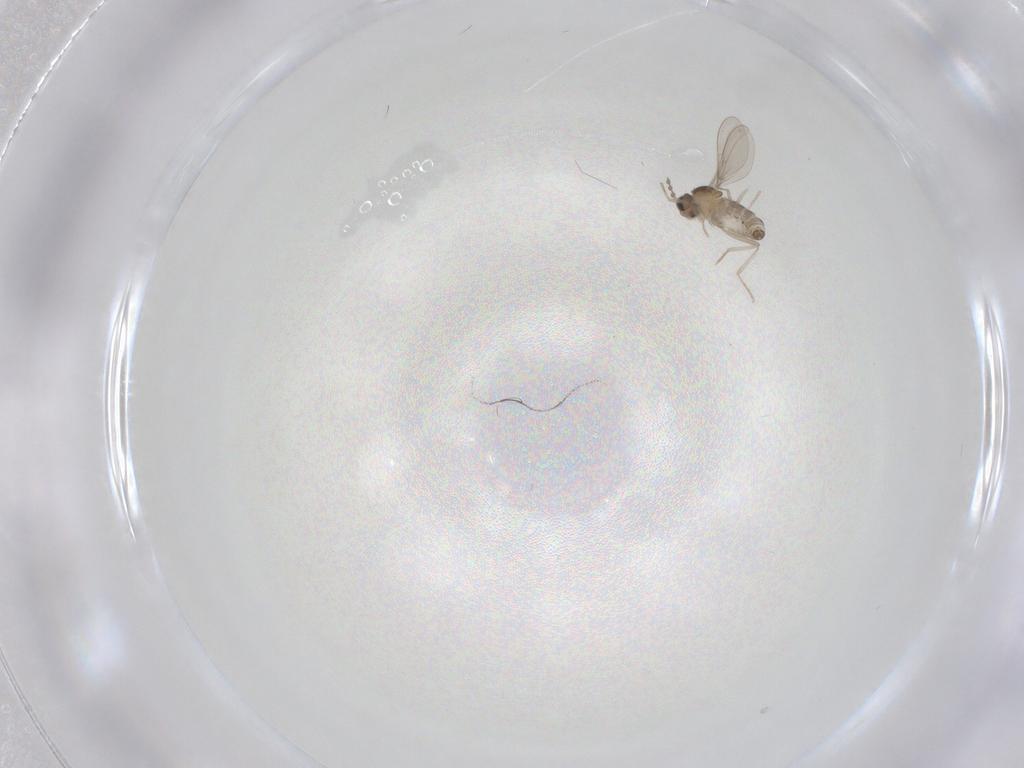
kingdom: Animalia
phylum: Arthropoda
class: Insecta
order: Diptera
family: Cecidomyiidae
